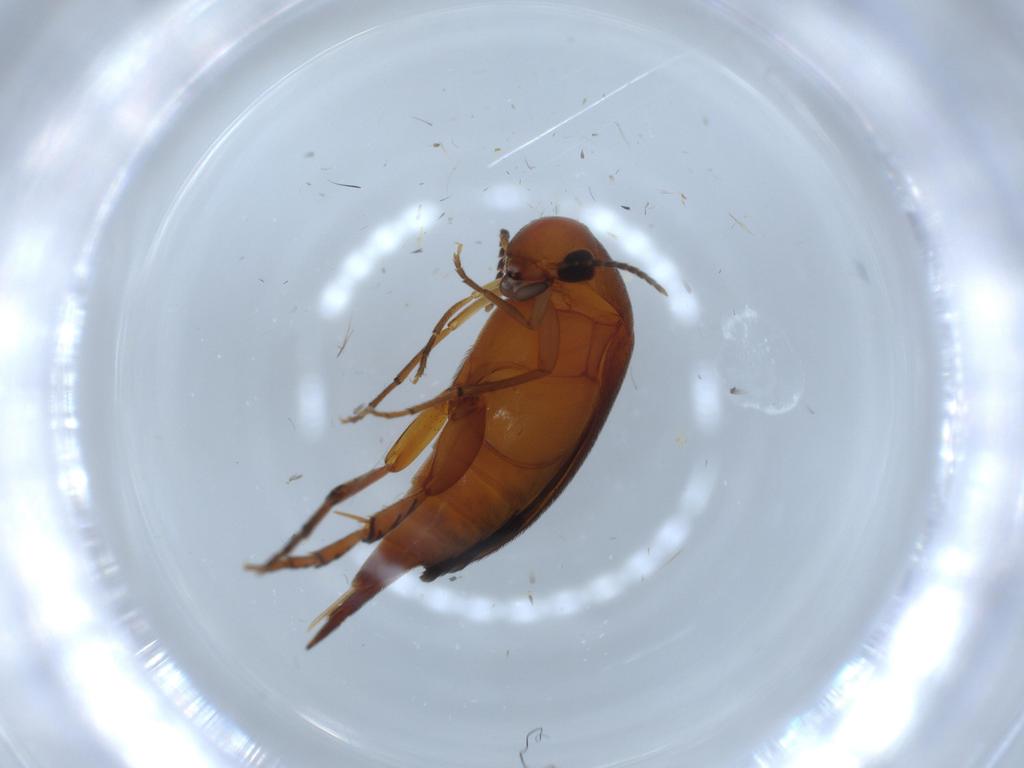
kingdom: Animalia
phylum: Arthropoda
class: Insecta
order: Coleoptera
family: Mordellidae
